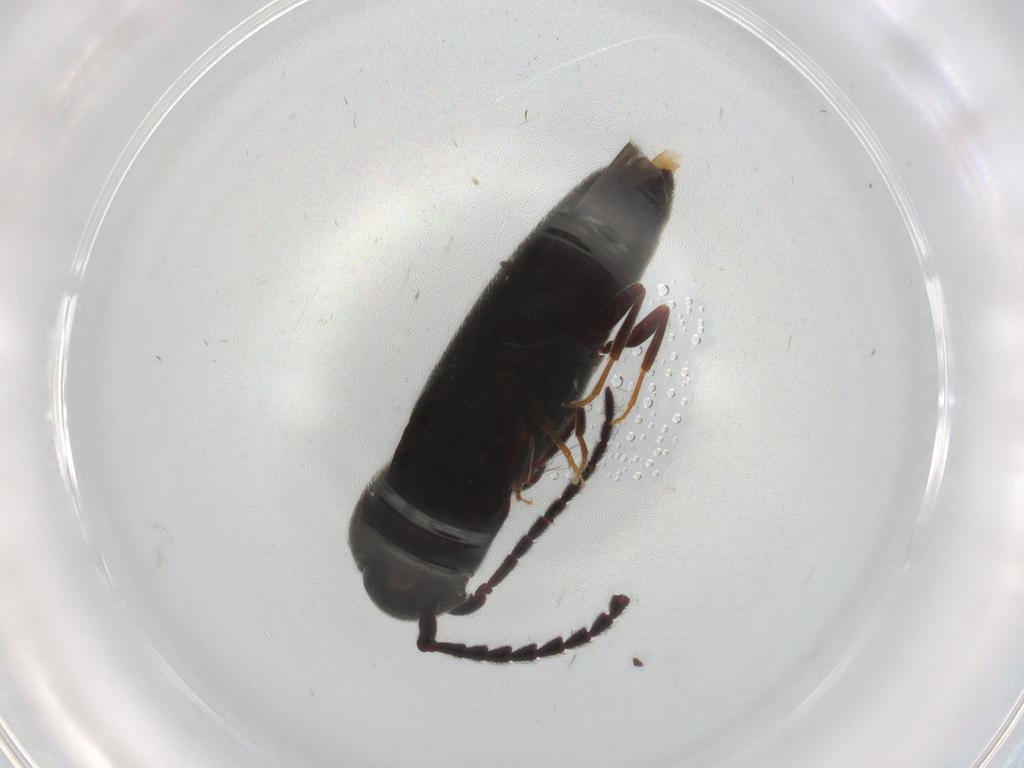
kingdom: Animalia
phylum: Arthropoda
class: Insecta
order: Coleoptera
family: Eucnemidae
